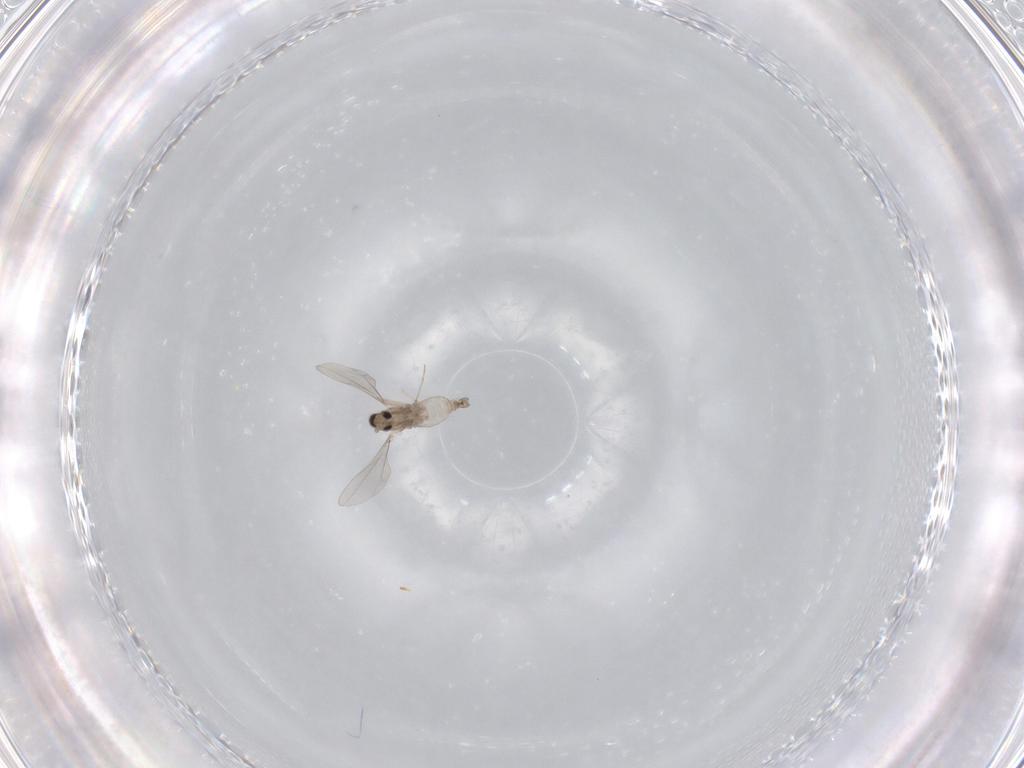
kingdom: Animalia
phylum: Arthropoda
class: Insecta
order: Diptera
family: Cecidomyiidae
